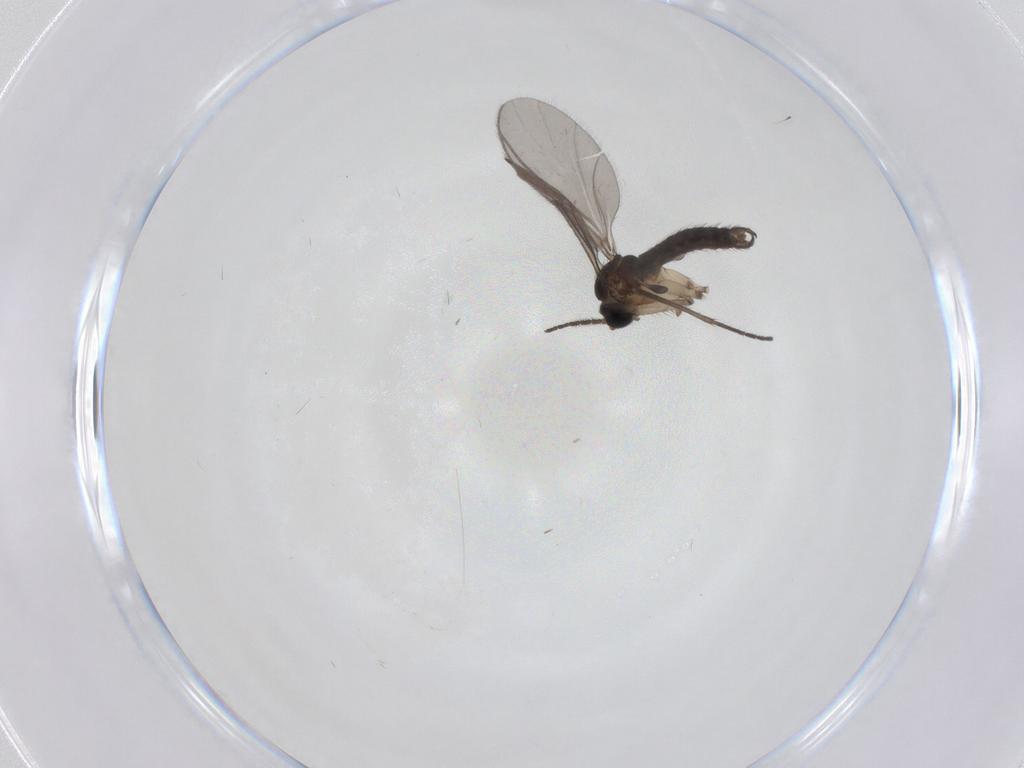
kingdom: Animalia
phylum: Arthropoda
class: Insecta
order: Diptera
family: Sciaridae
